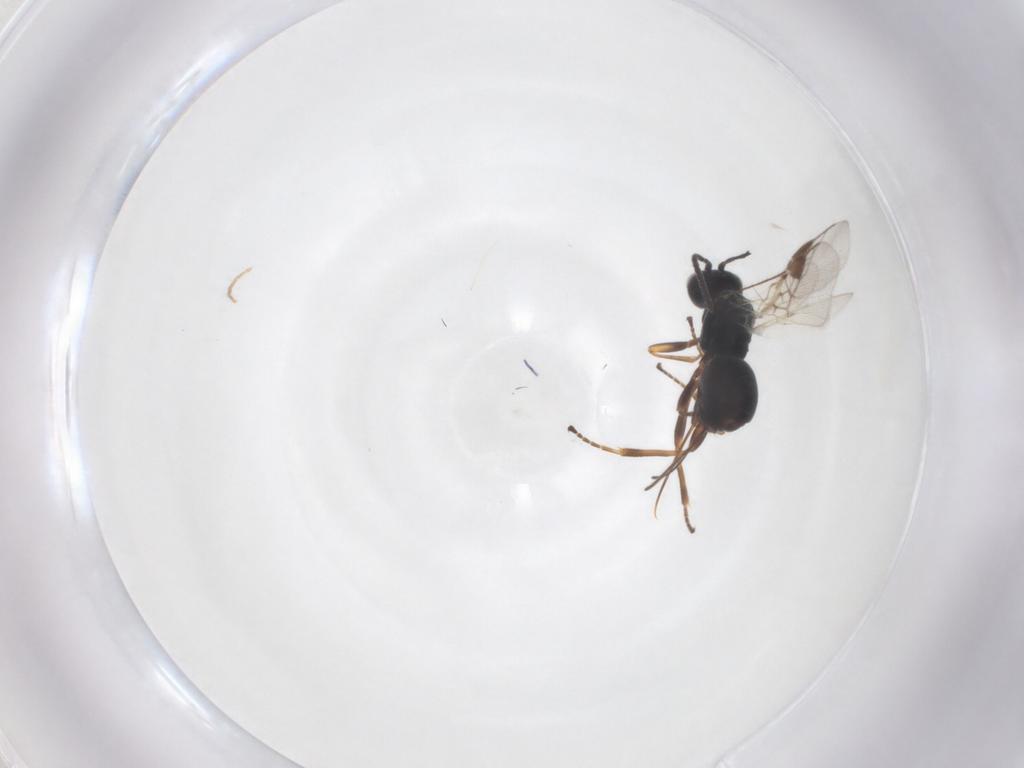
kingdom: Animalia
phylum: Arthropoda
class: Insecta
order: Hymenoptera
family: Braconidae
